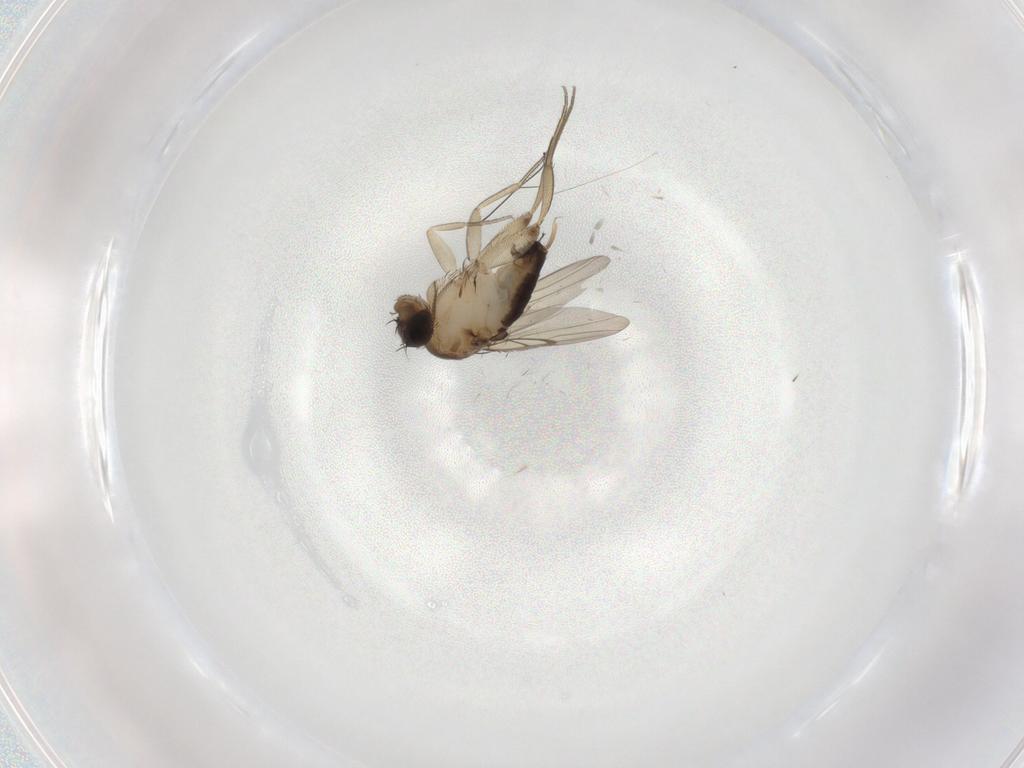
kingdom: Animalia
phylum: Arthropoda
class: Insecta
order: Diptera
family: Phoridae
